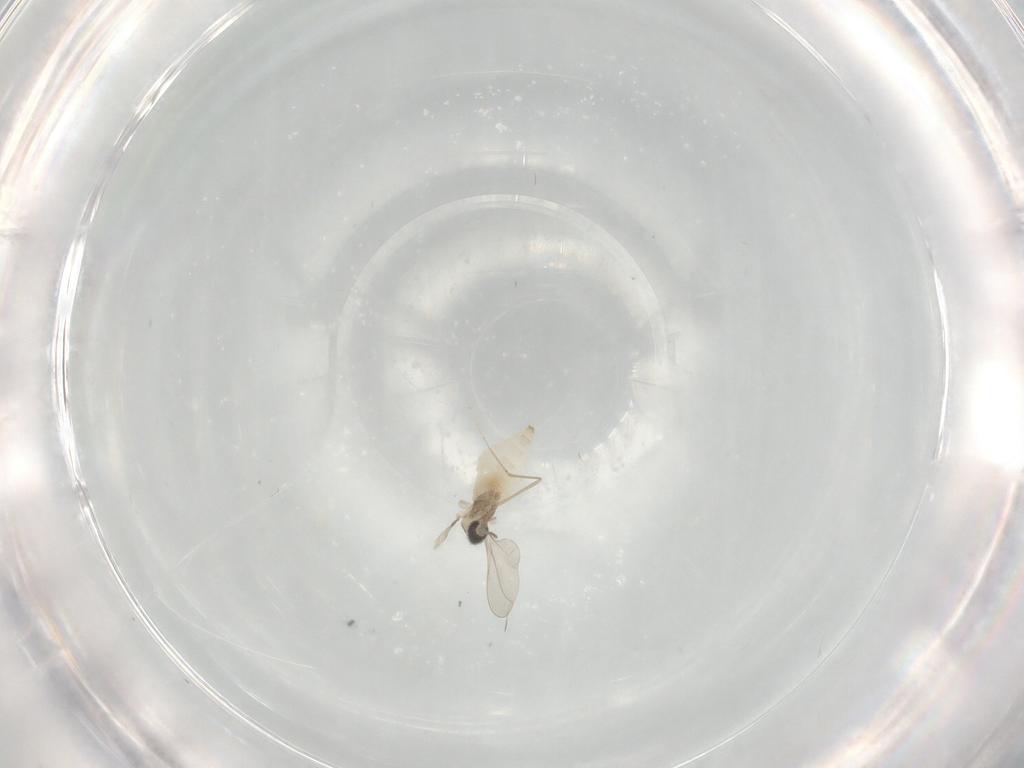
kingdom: Animalia
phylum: Arthropoda
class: Insecta
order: Diptera
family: Cecidomyiidae
